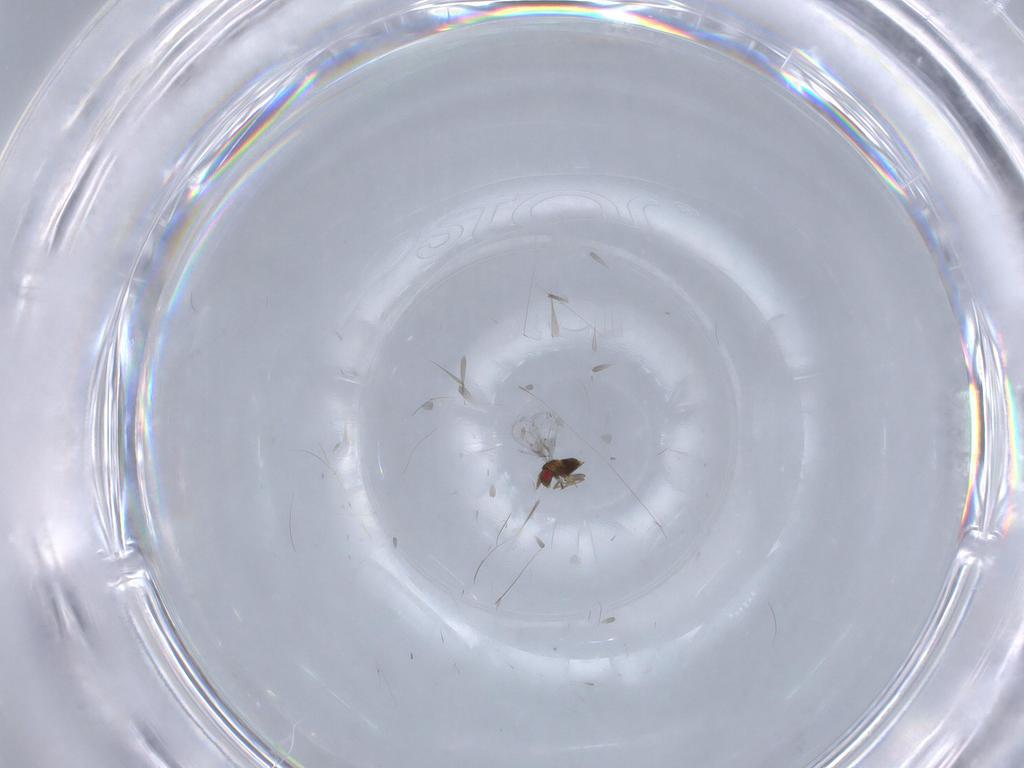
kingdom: Animalia
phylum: Arthropoda
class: Insecta
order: Hymenoptera
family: Trichogrammatidae
